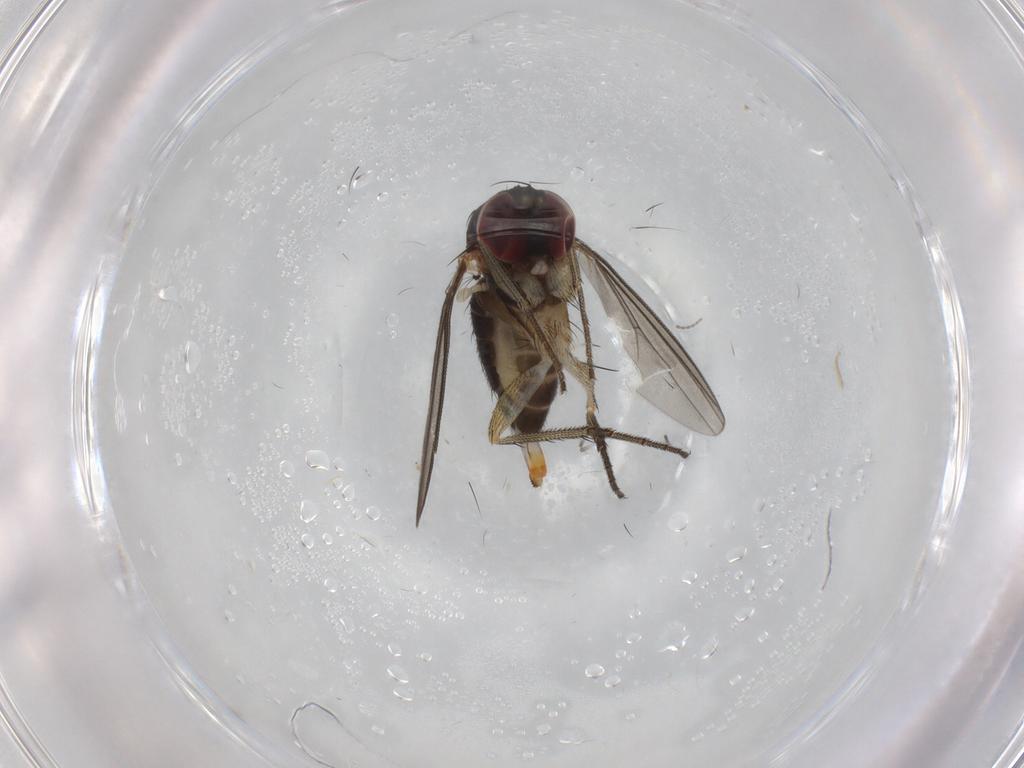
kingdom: Animalia
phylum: Arthropoda
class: Insecta
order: Diptera
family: Dolichopodidae
